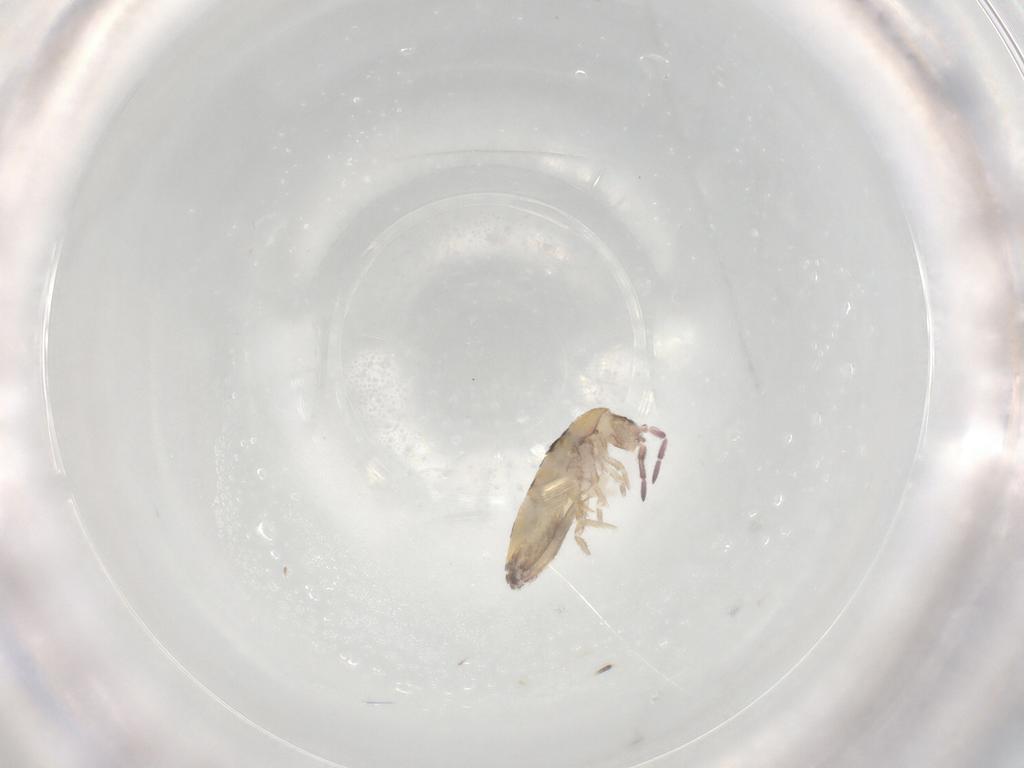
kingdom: Animalia
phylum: Arthropoda
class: Collembola
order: Entomobryomorpha
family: Entomobryidae
